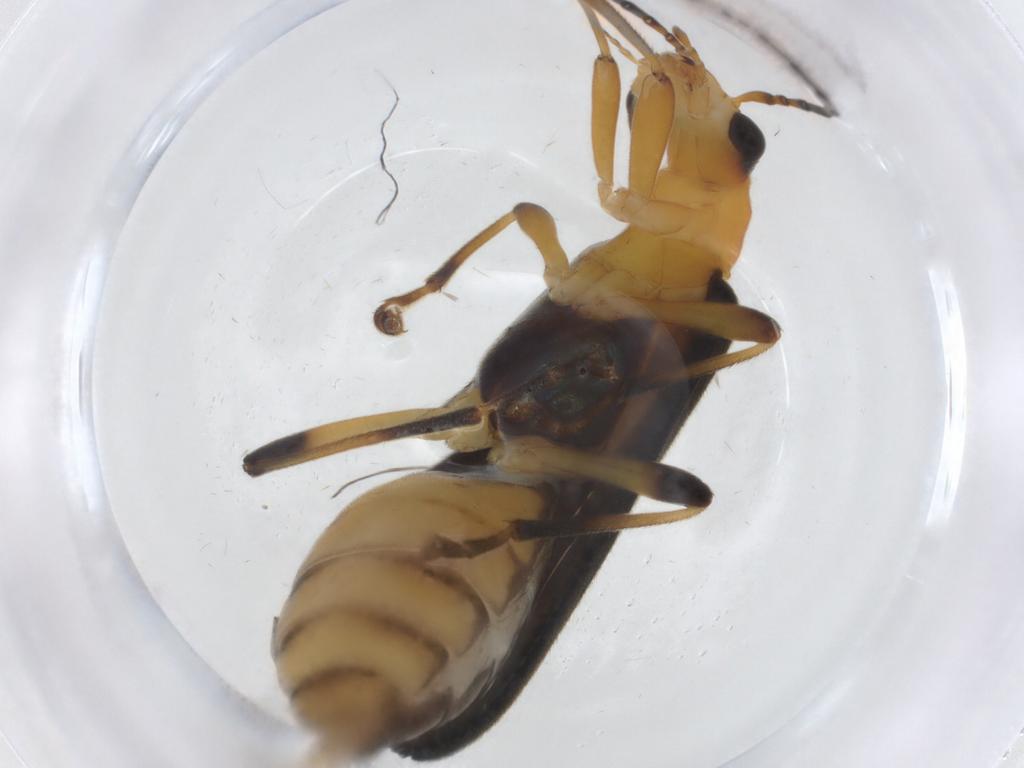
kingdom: Animalia
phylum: Arthropoda
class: Insecta
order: Coleoptera
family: Oedemeridae
